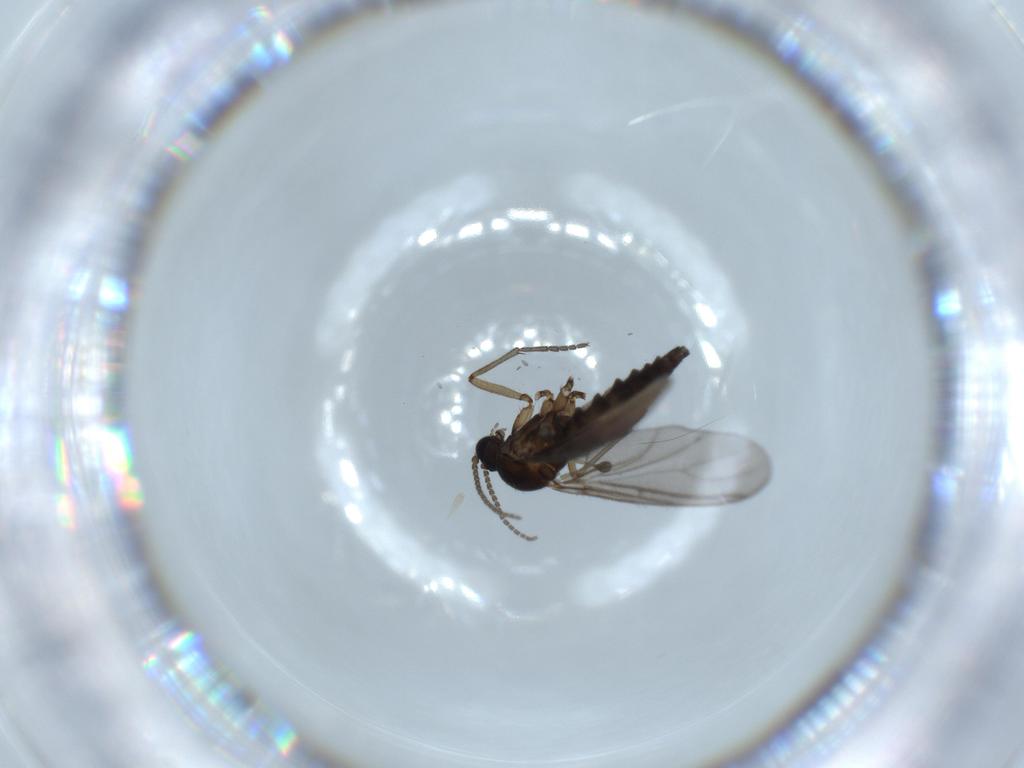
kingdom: Animalia
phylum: Arthropoda
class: Insecta
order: Diptera
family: Sciaridae
